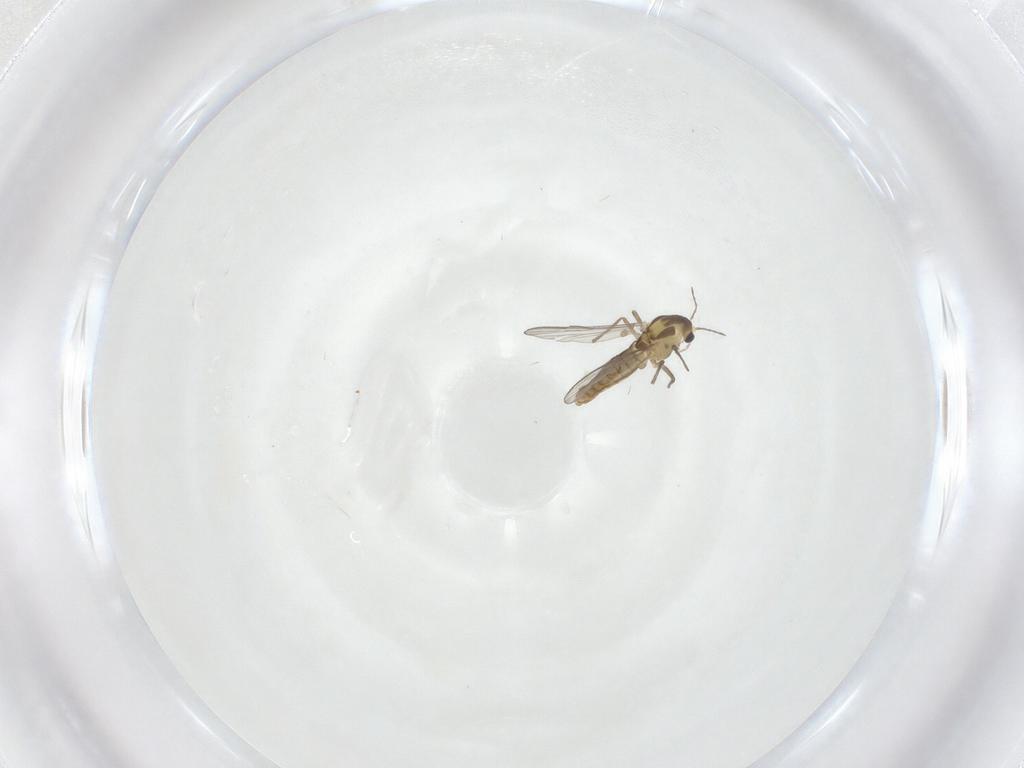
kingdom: Animalia
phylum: Arthropoda
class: Insecta
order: Diptera
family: Chironomidae
